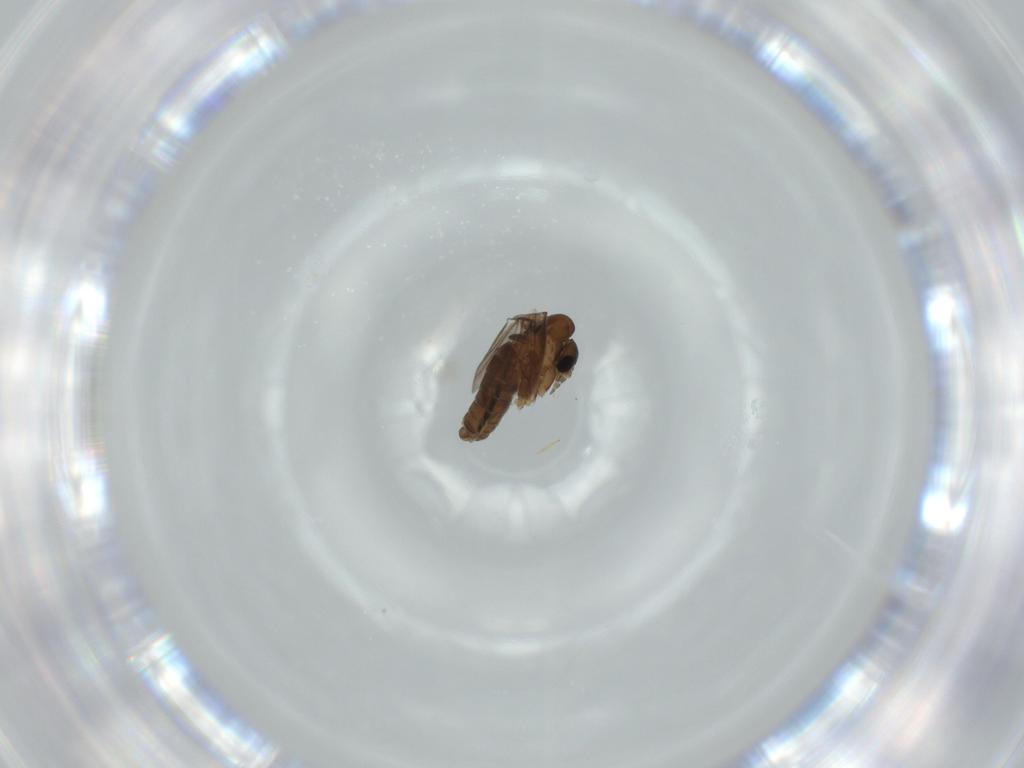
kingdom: Animalia
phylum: Arthropoda
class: Insecta
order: Diptera
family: Psychodidae
